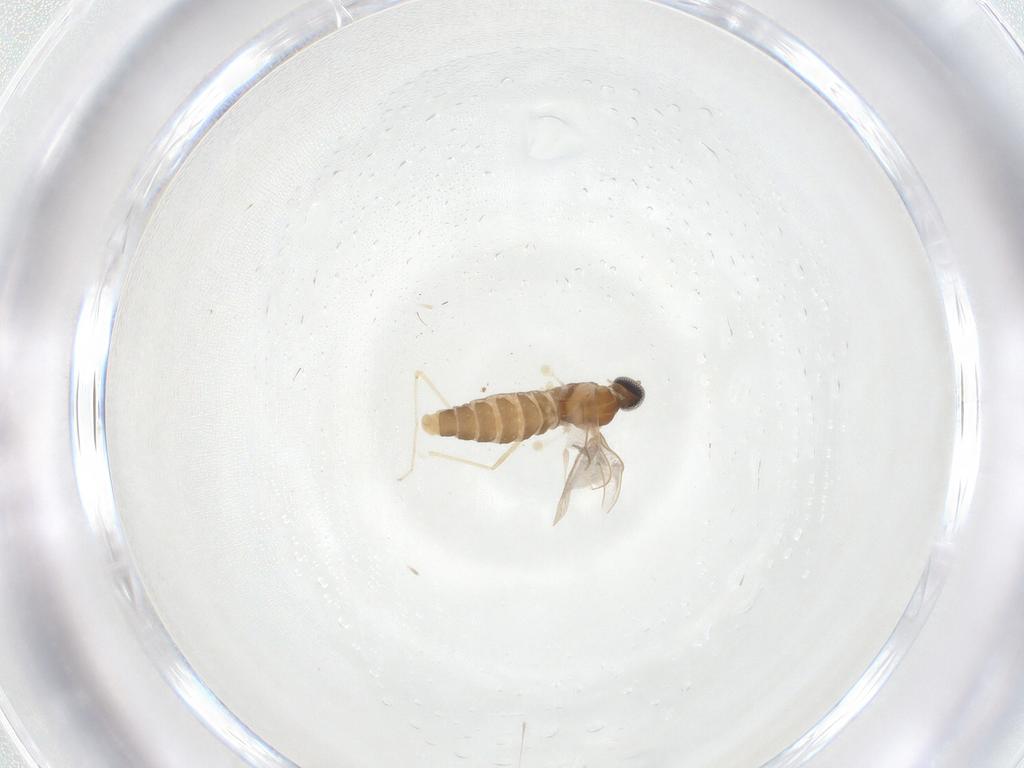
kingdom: Animalia
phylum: Arthropoda
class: Insecta
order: Diptera
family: Cecidomyiidae
